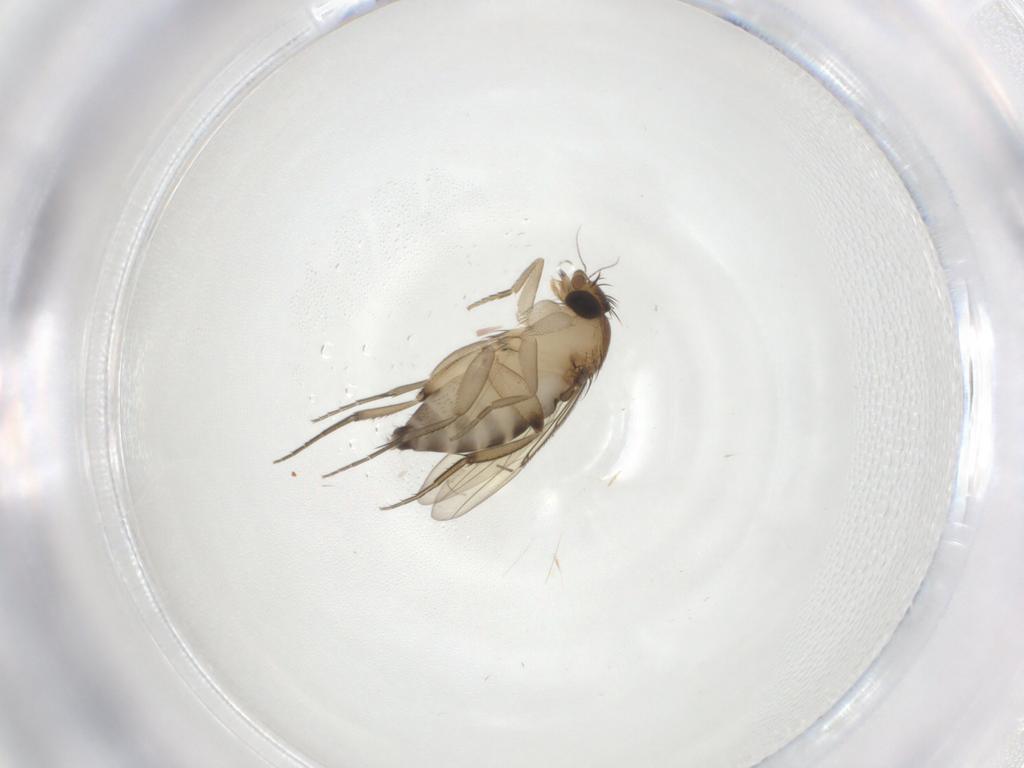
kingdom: Animalia
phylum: Arthropoda
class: Insecta
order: Diptera
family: Phoridae
